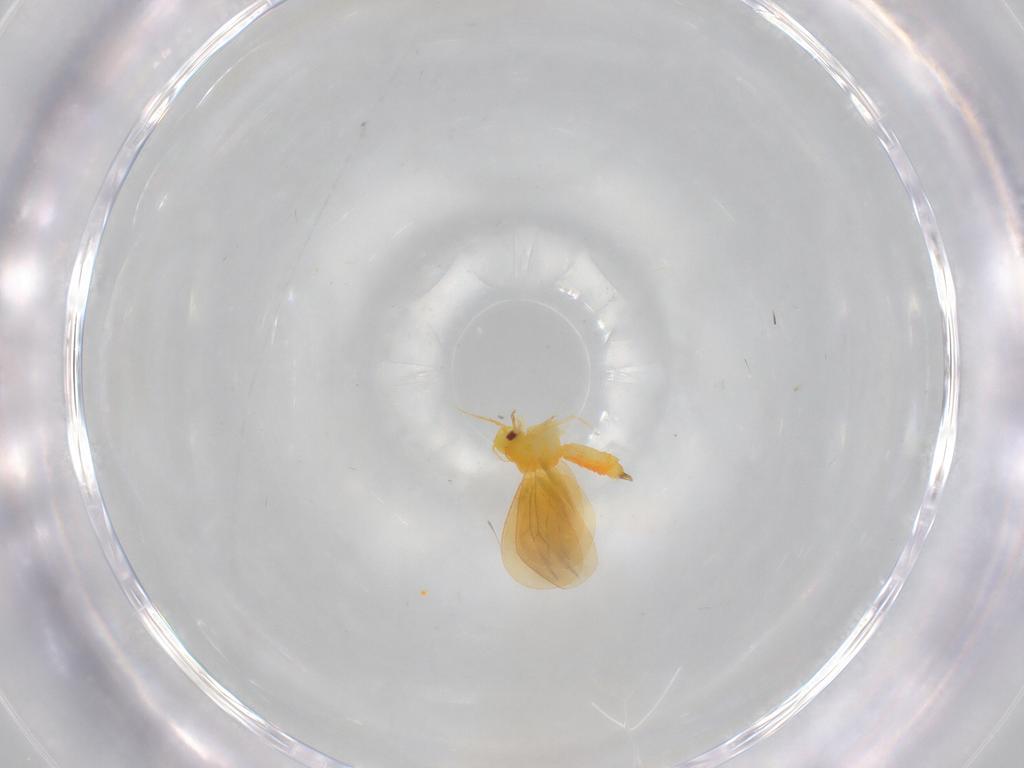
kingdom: Animalia
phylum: Arthropoda
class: Insecta
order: Hemiptera
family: Aleyrodidae
